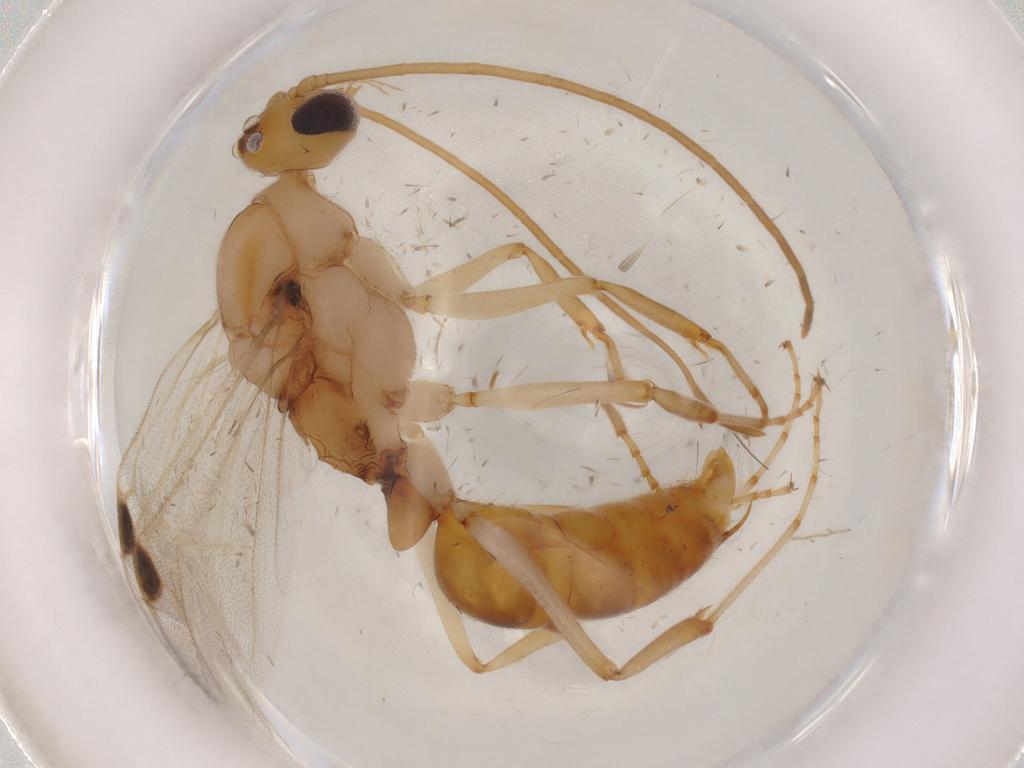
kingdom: Animalia
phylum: Arthropoda
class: Insecta
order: Hymenoptera
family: Formicidae
